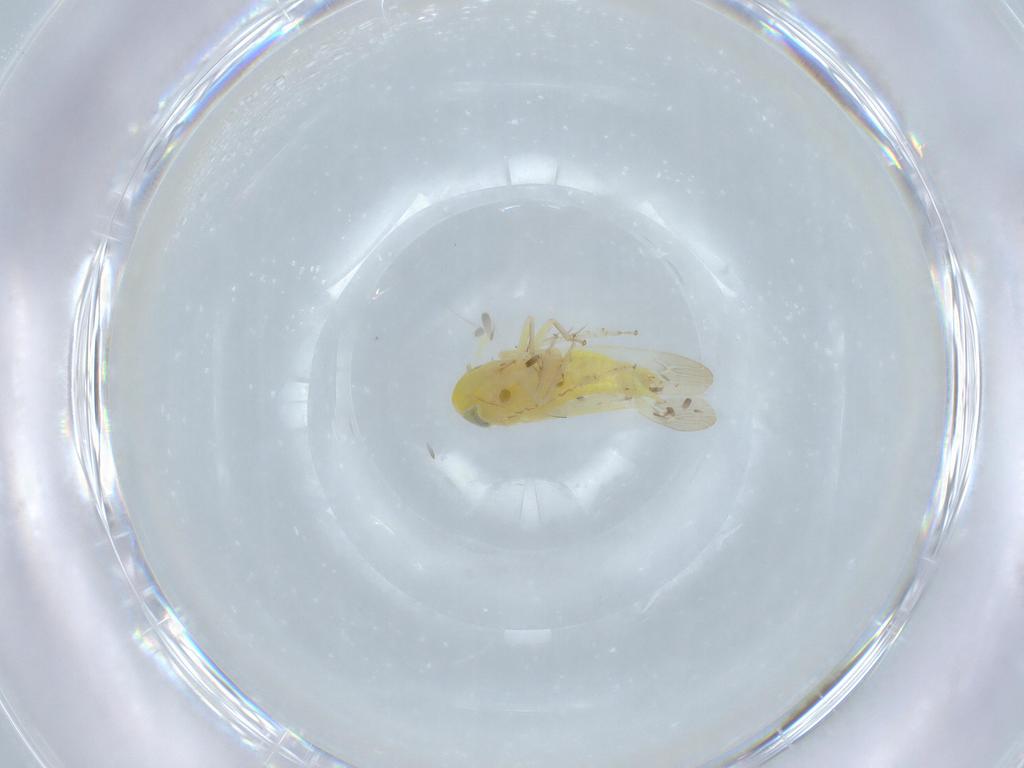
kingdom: Animalia
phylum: Arthropoda
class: Insecta
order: Hemiptera
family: Cicadellidae
